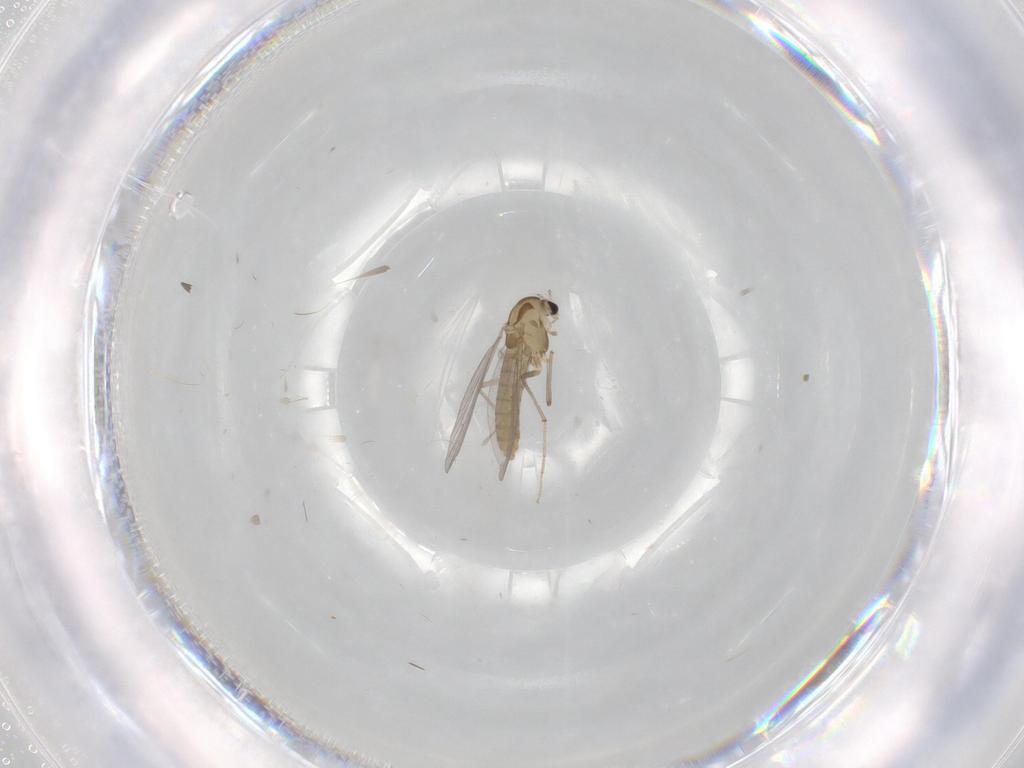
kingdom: Animalia
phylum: Arthropoda
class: Insecta
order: Diptera
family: Chironomidae
